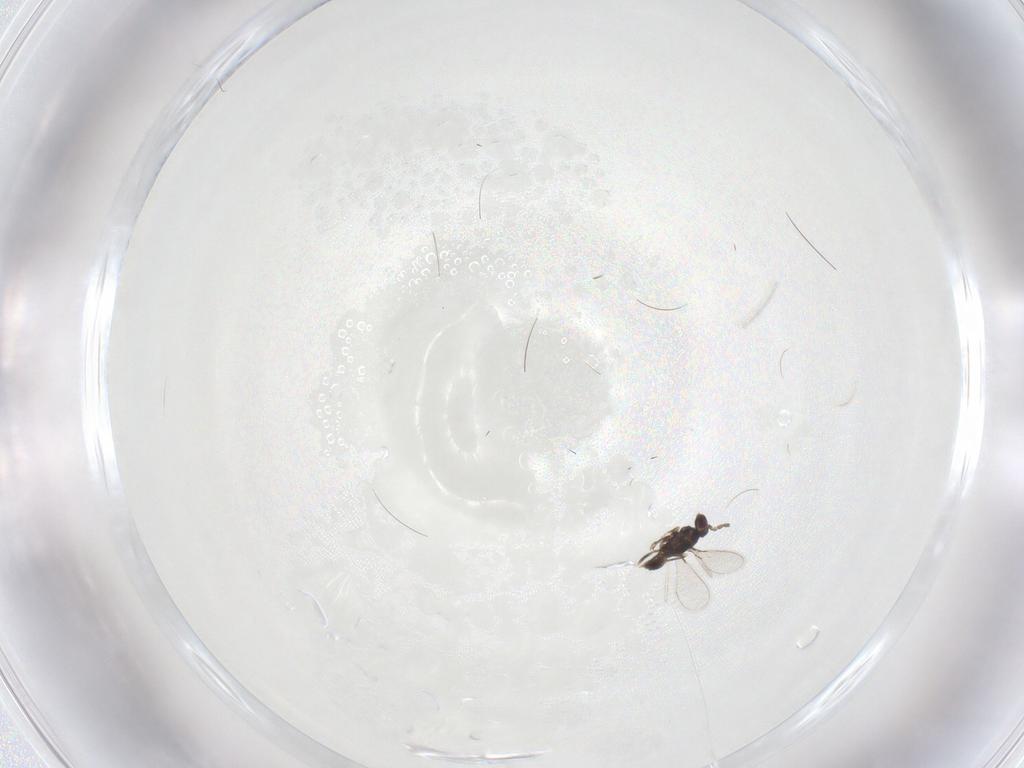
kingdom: Animalia
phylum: Arthropoda
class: Insecta
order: Hymenoptera
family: Mymaridae
